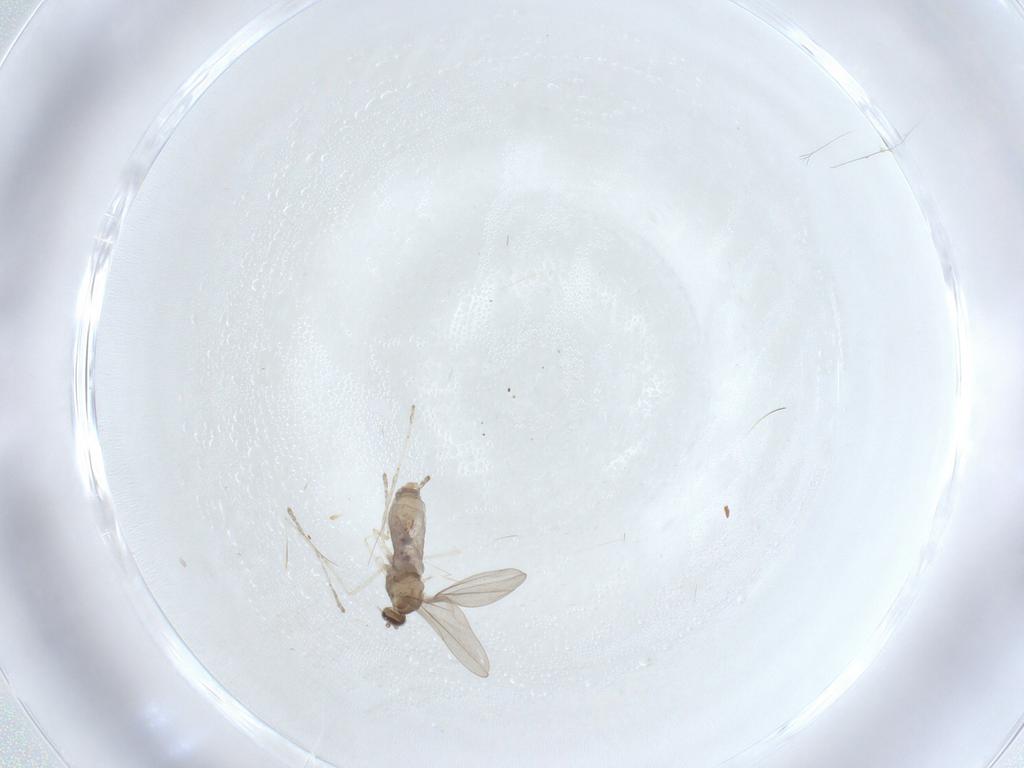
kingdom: Animalia
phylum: Arthropoda
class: Insecta
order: Diptera
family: Cecidomyiidae
